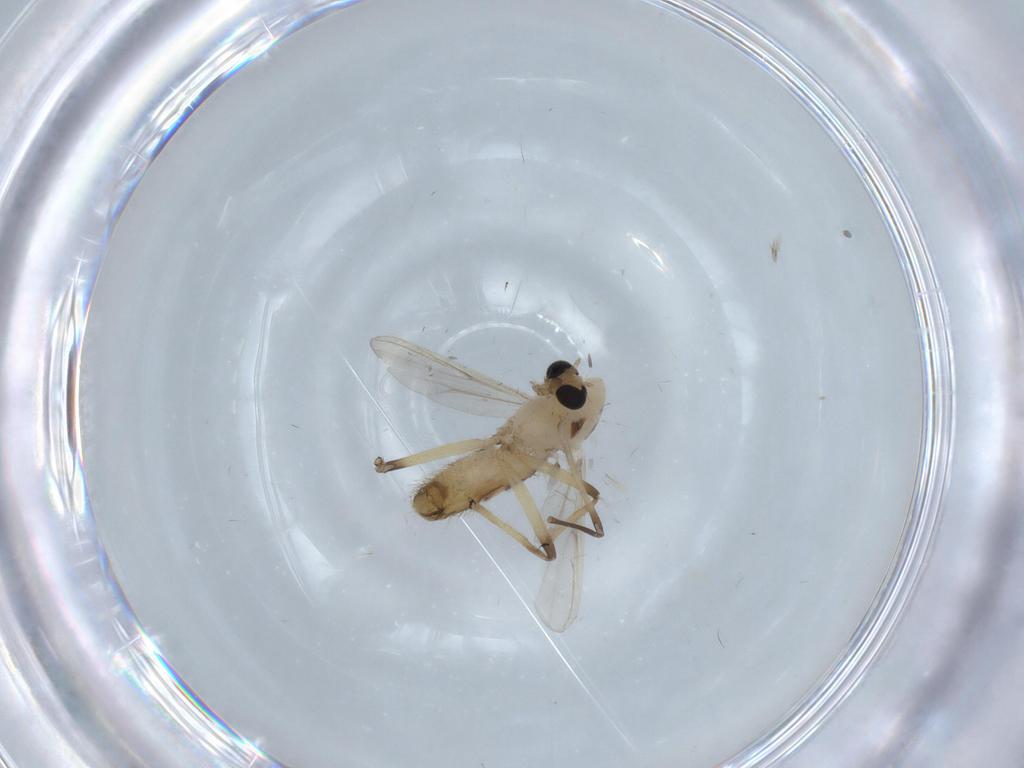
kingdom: Animalia
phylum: Arthropoda
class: Insecta
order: Diptera
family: Chironomidae
